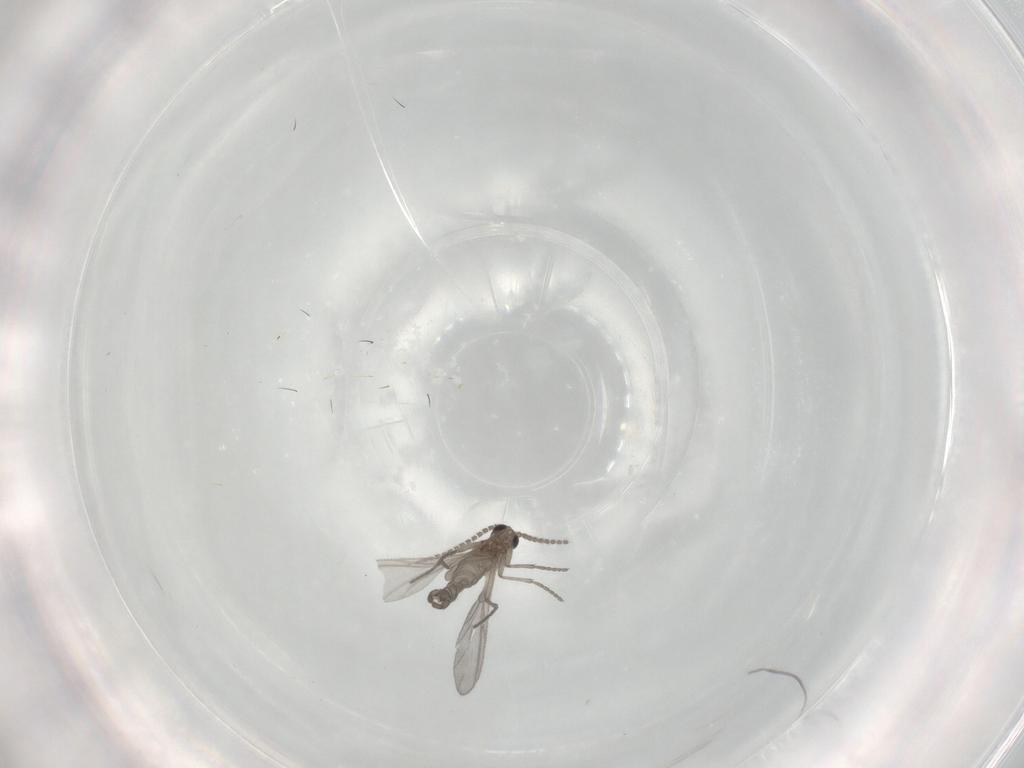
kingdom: Animalia
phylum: Arthropoda
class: Insecta
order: Diptera
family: Sciaridae
